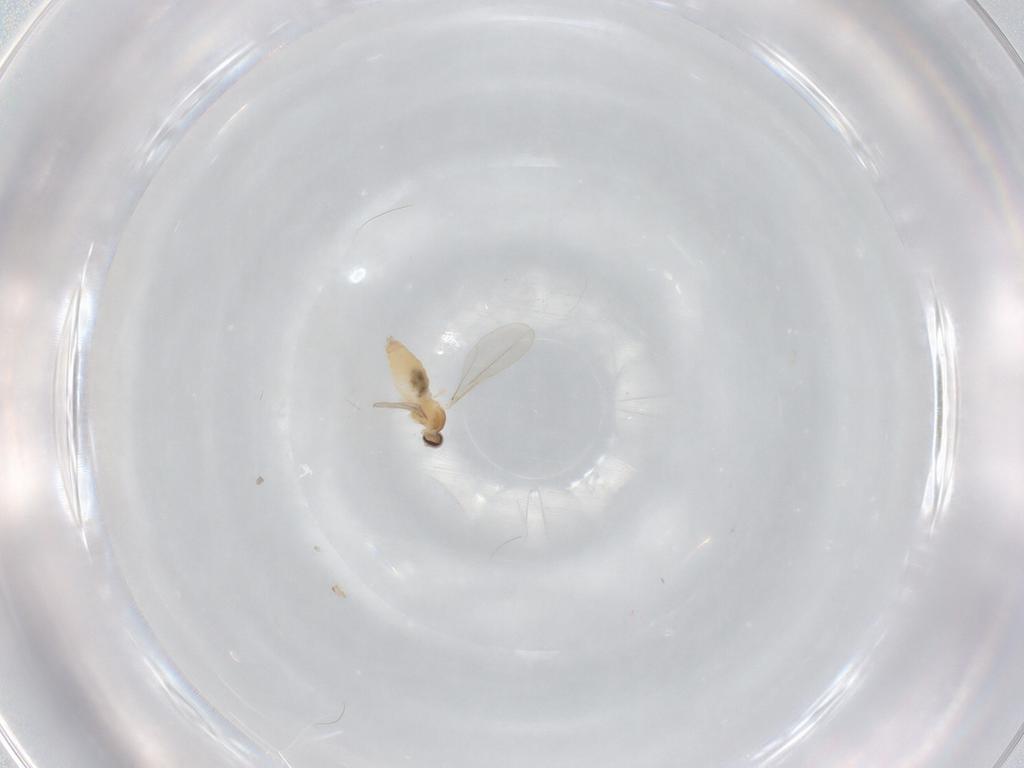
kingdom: Animalia
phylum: Arthropoda
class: Insecta
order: Diptera
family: Cecidomyiidae
